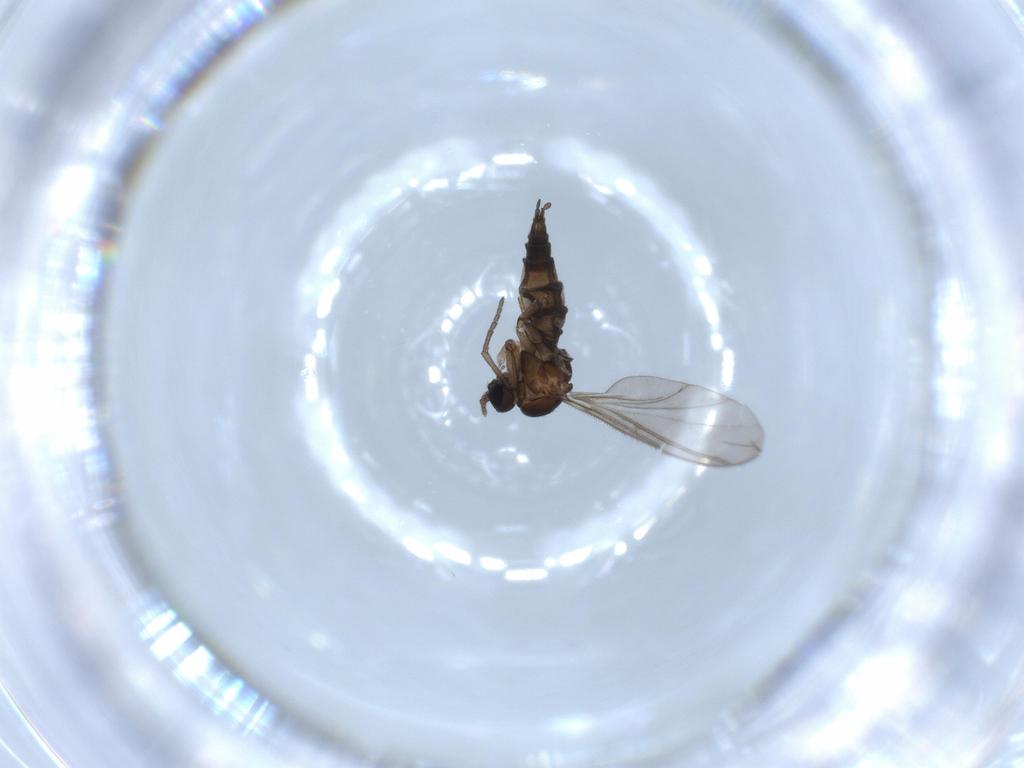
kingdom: Animalia
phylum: Arthropoda
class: Insecta
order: Diptera
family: Sciaridae
